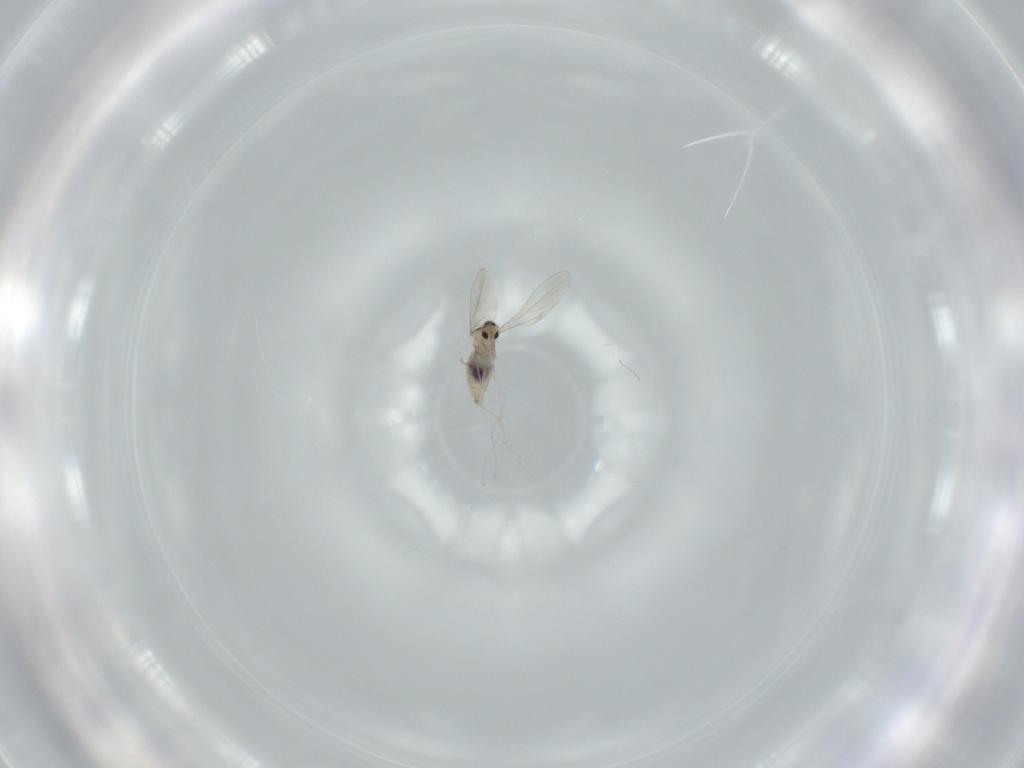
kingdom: Animalia
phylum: Arthropoda
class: Insecta
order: Diptera
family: Cecidomyiidae
